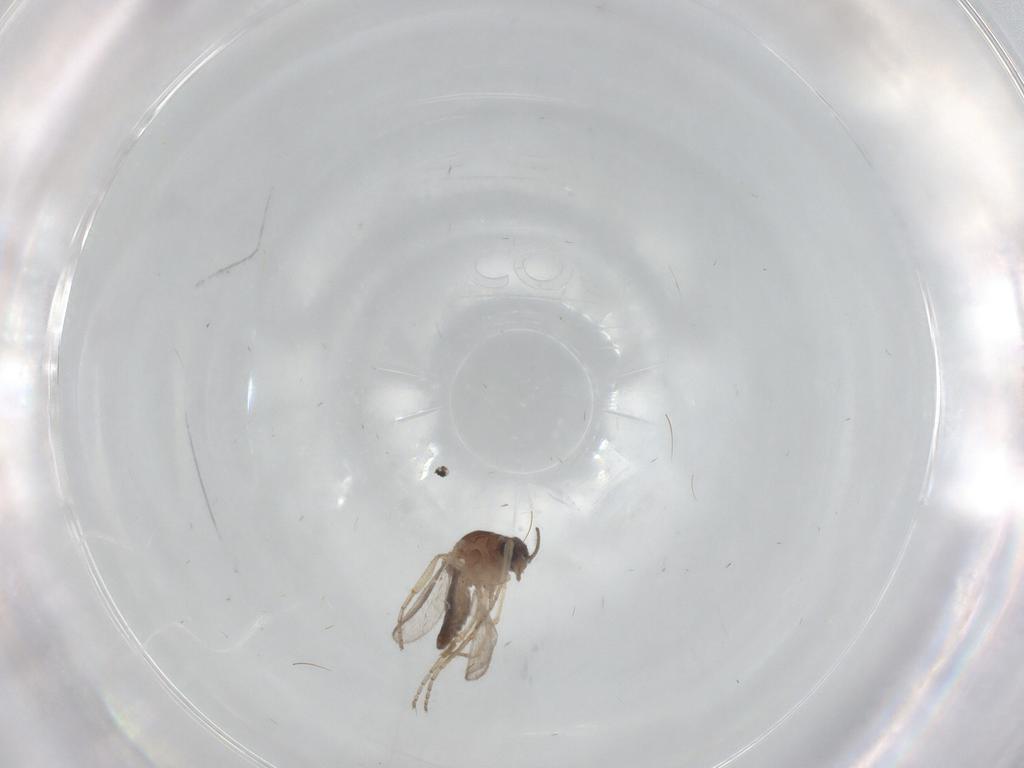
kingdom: Animalia
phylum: Arthropoda
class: Insecta
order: Diptera
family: Ceratopogonidae
